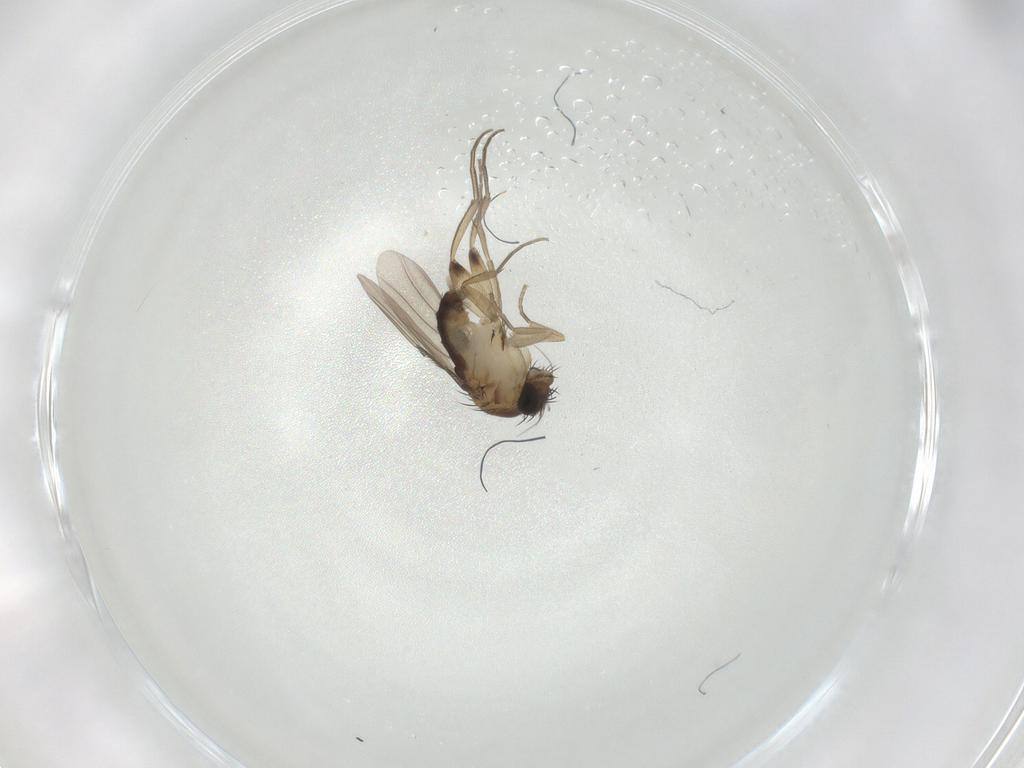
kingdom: Animalia
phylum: Arthropoda
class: Insecta
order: Diptera
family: Phoridae
